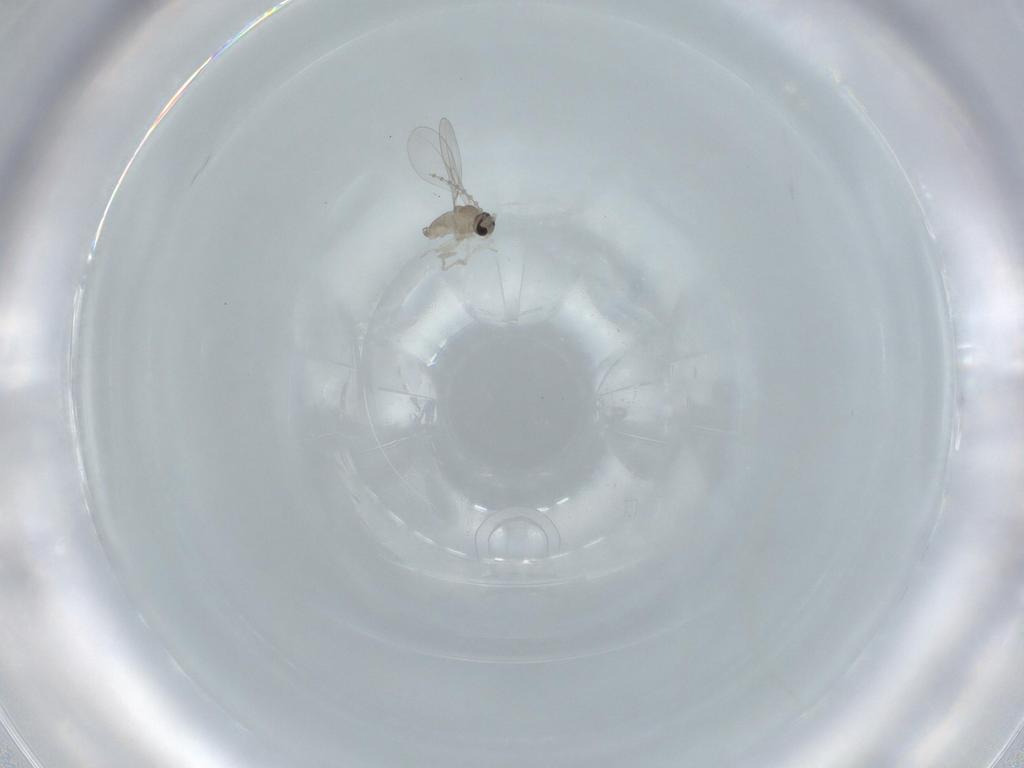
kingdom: Animalia
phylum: Arthropoda
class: Insecta
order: Diptera
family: Cecidomyiidae
